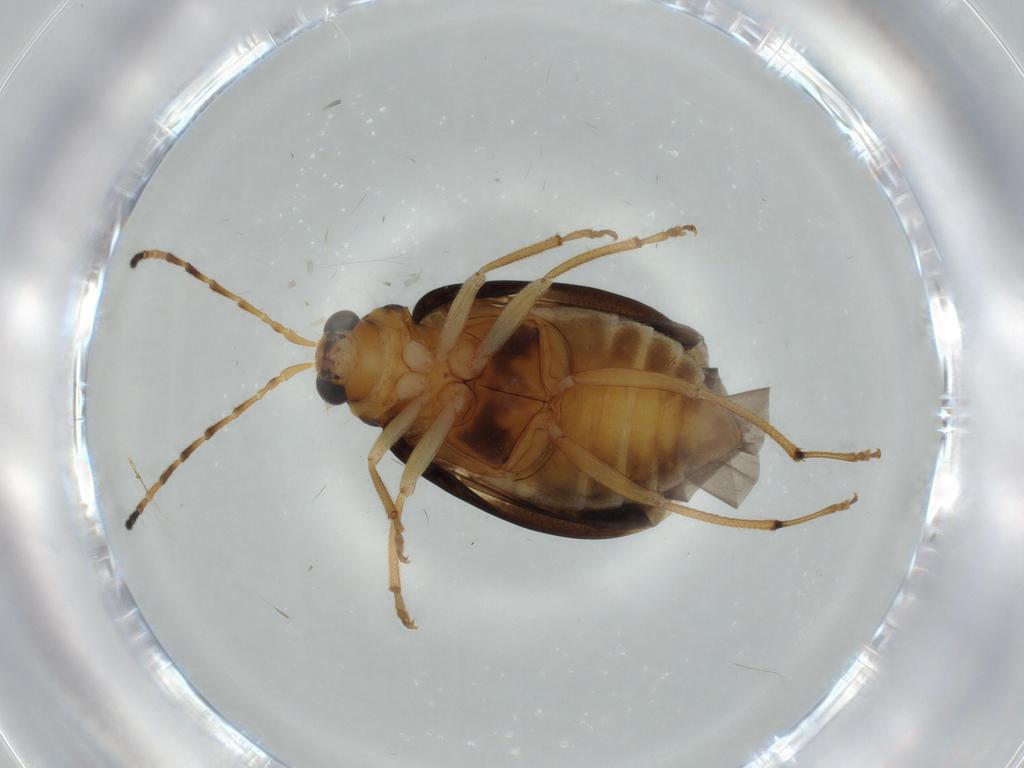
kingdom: Animalia
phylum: Arthropoda
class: Insecta
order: Coleoptera
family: Chrysomelidae
